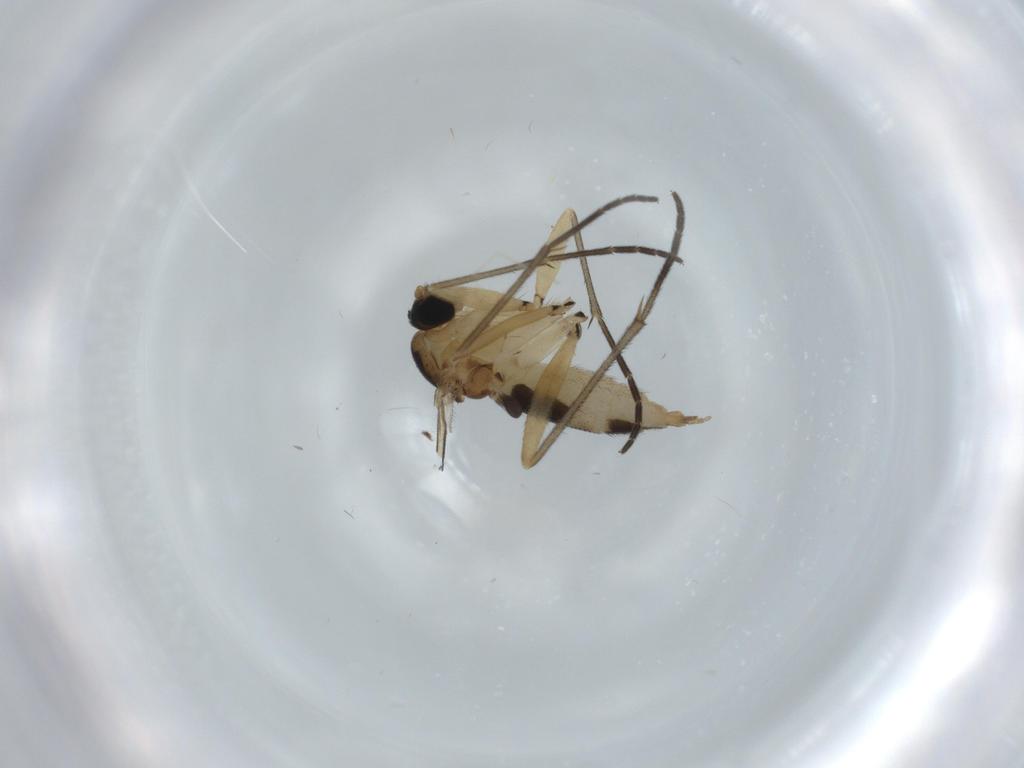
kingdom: Animalia
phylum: Arthropoda
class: Insecta
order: Diptera
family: Sciaridae
